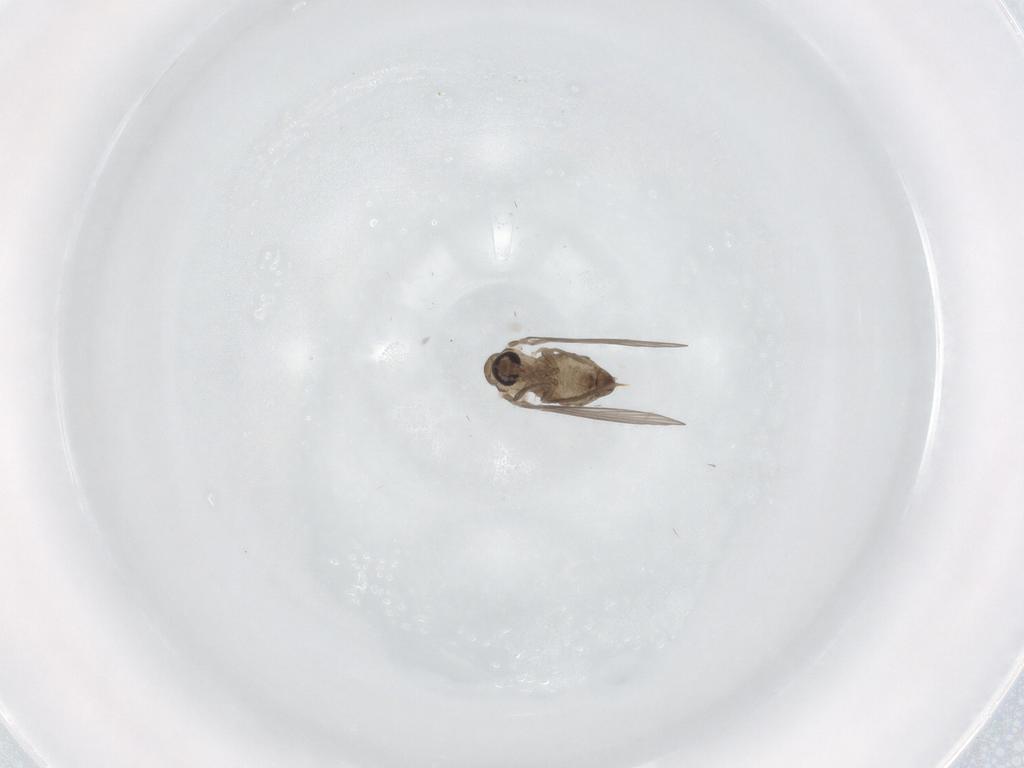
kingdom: Animalia
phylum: Arthropoda
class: Insecta
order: Diptera
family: Psychodidae
